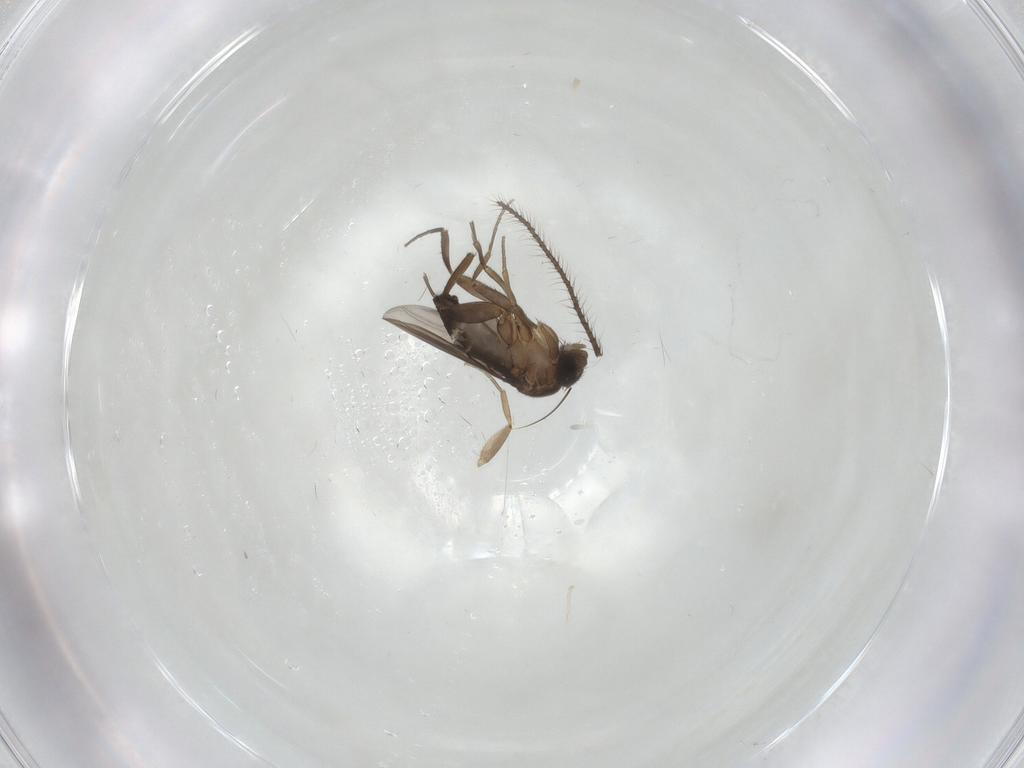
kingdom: Animalia
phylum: Arthropoda
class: Insecta
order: Diptera
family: Phoridae
